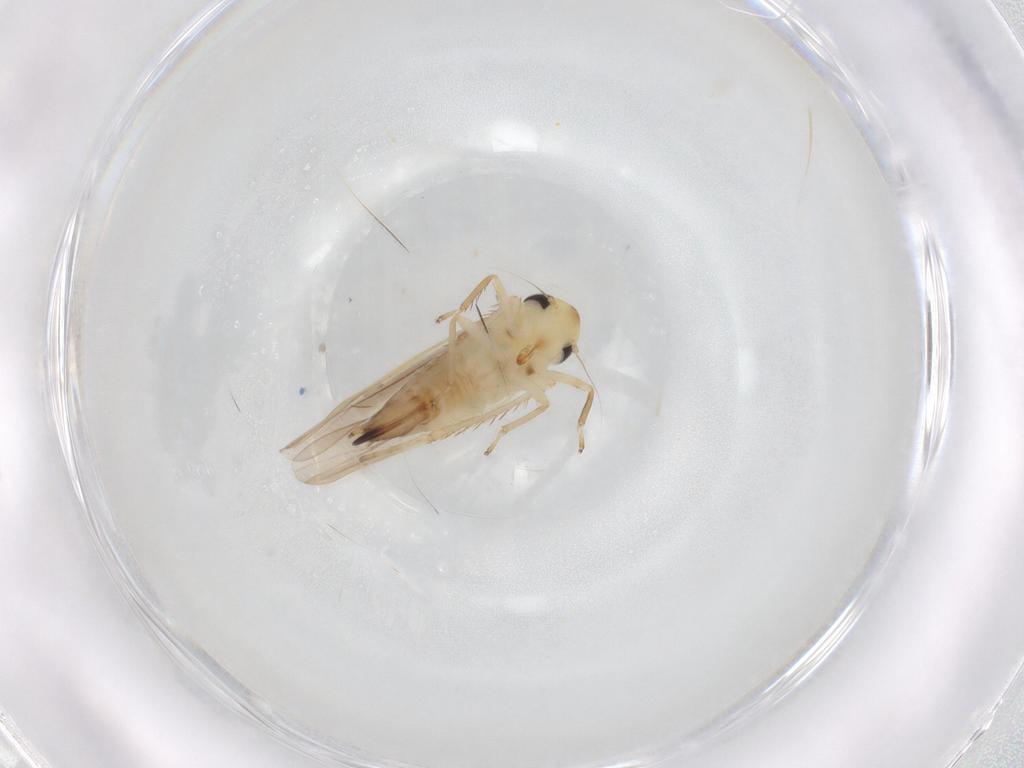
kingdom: Animalia
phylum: Arthropoda
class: Insecta
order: Hemiptera
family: Cicadellidae
